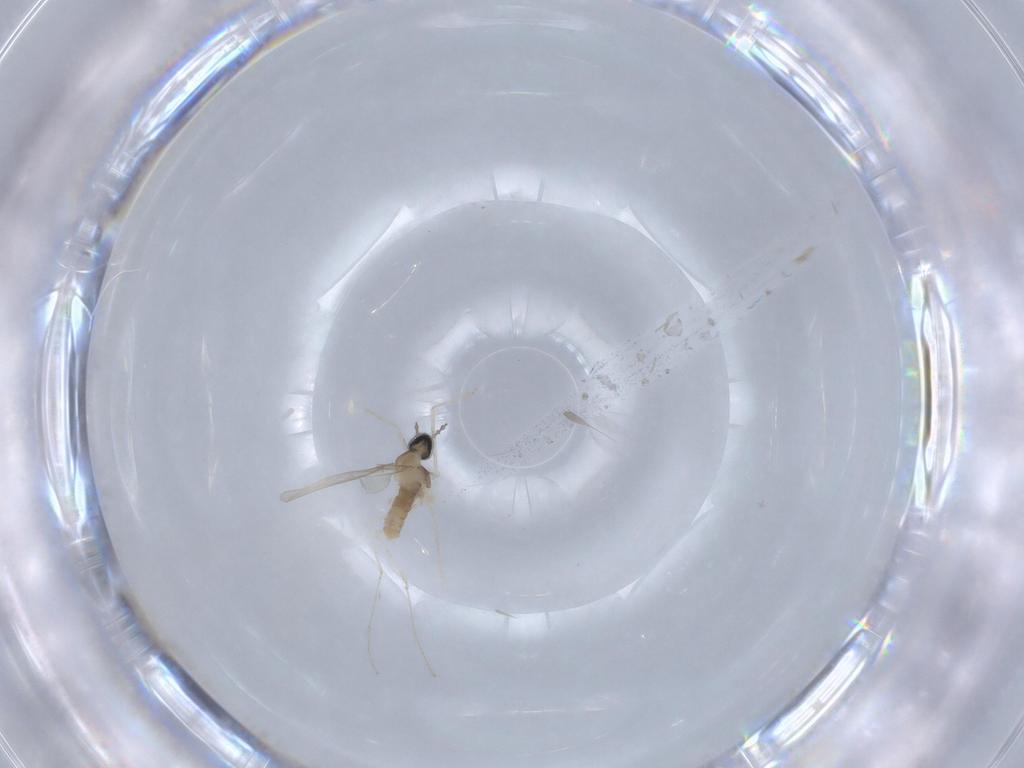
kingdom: Animalia
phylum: Arthropoda
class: Insecta
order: Diptera
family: Cecidomyiidae
